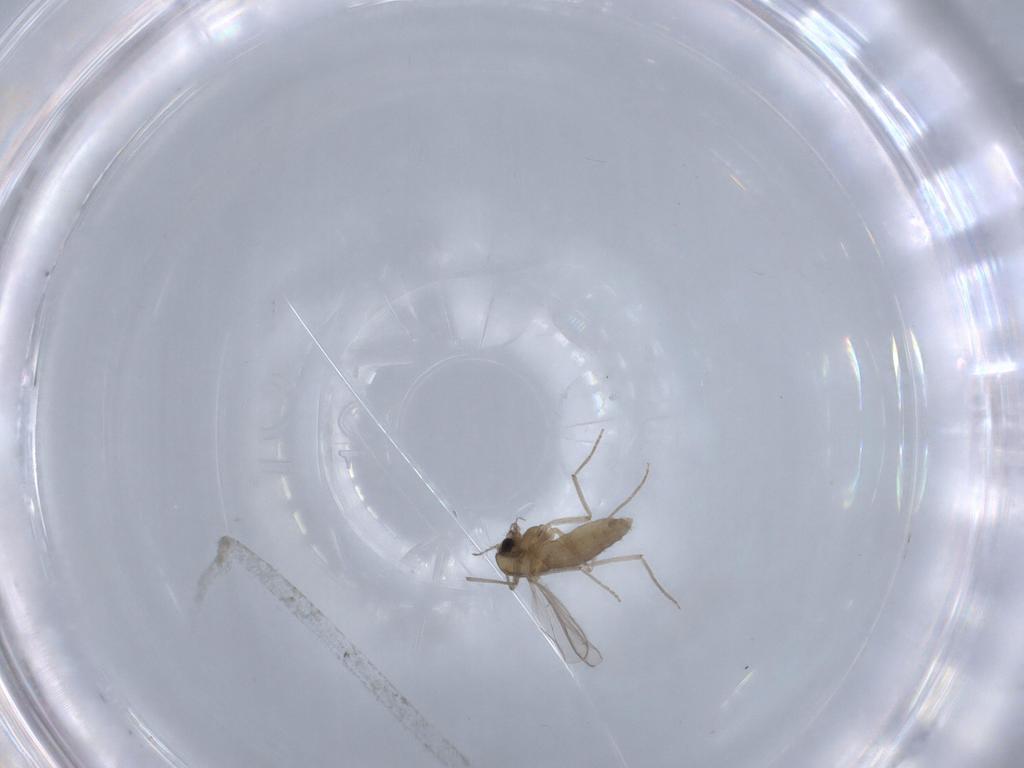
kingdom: Animalia
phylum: Arthropoda
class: Insecta
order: Diptera
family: Chironomidae
